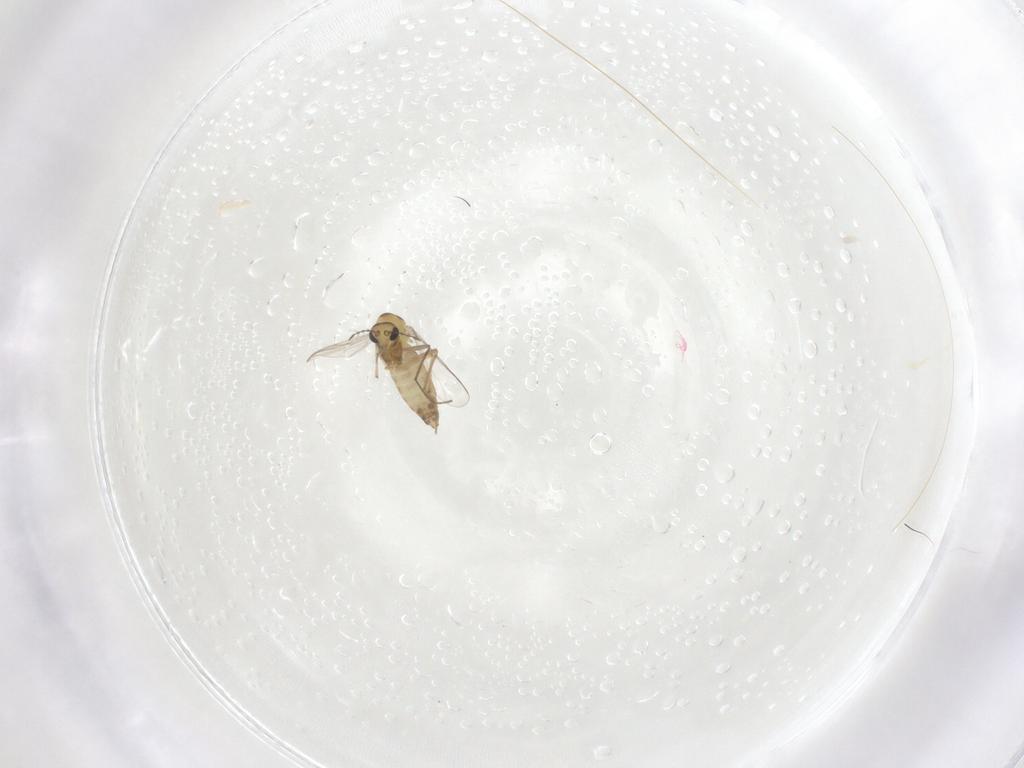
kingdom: Animalia
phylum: Arthropoda
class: Insecta
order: Diptera
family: Chironomidae
